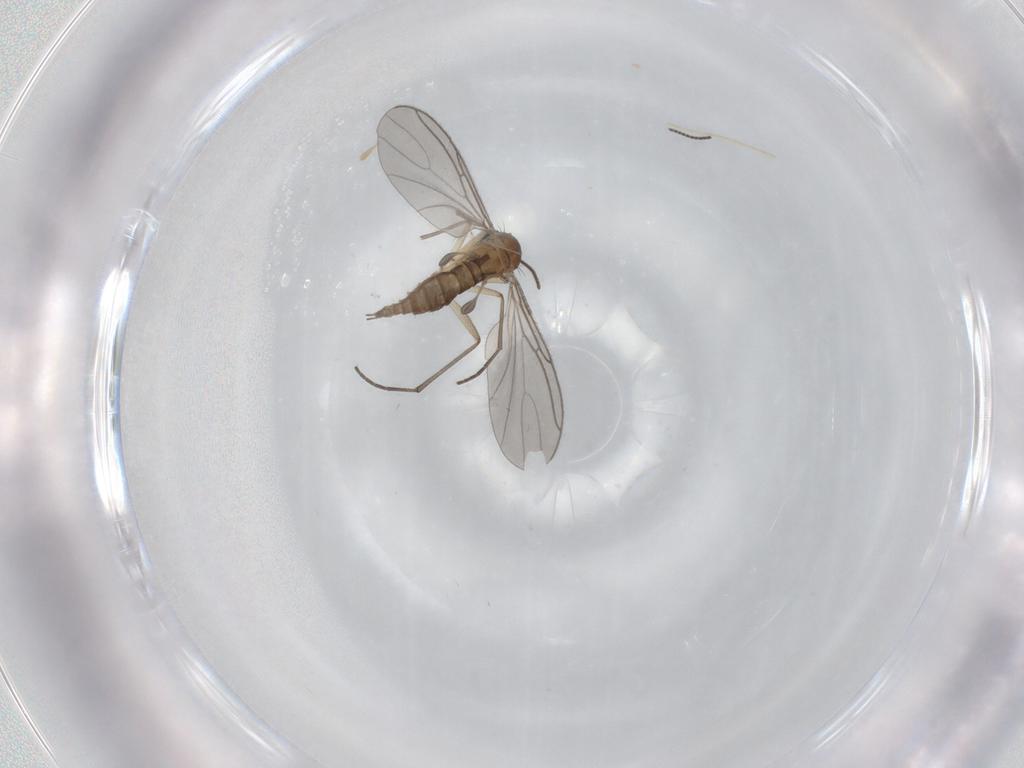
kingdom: Animalia
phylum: Arthropoda
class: Insecta
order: Diptera
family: Sciaridae
